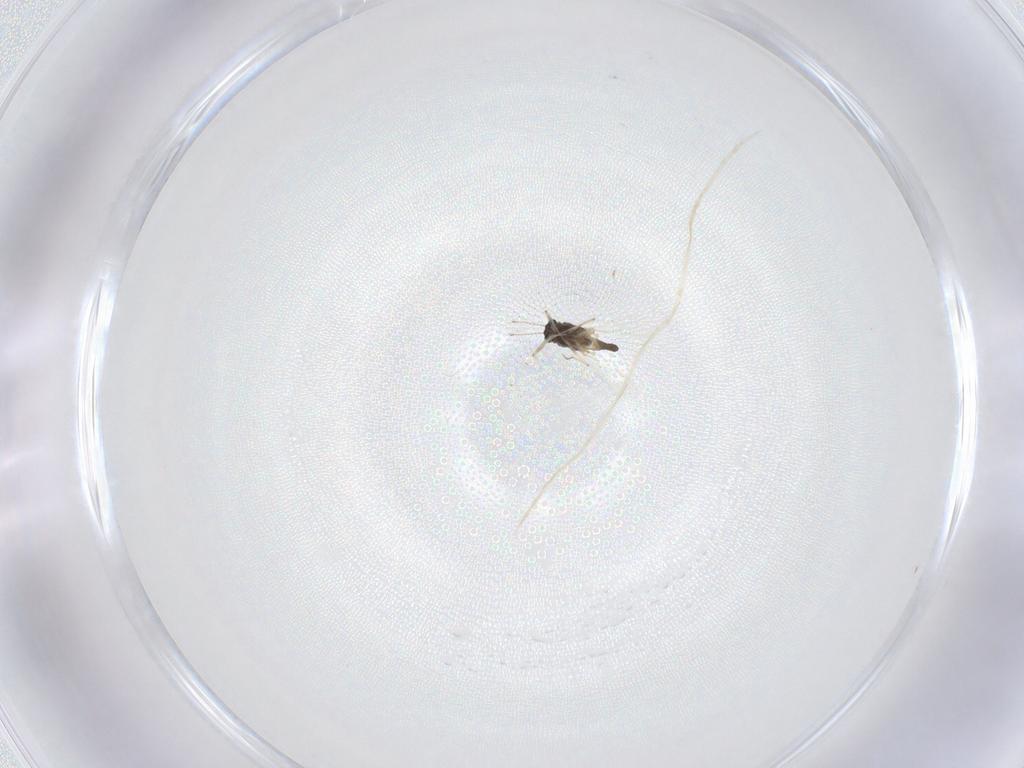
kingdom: Animalia
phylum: Arthropoda
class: Insecta
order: Diptera
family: Chironomidae
